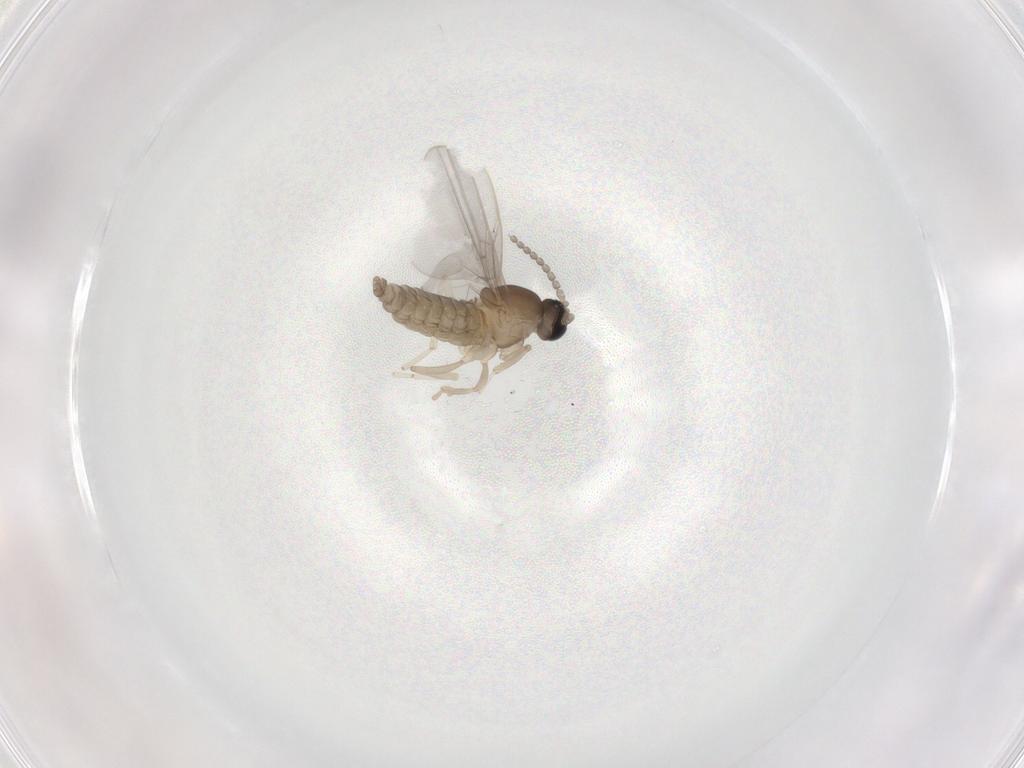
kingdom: Animalia
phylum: Arthropoda
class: Insecta
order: Diptera
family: Cecidomyiidae
